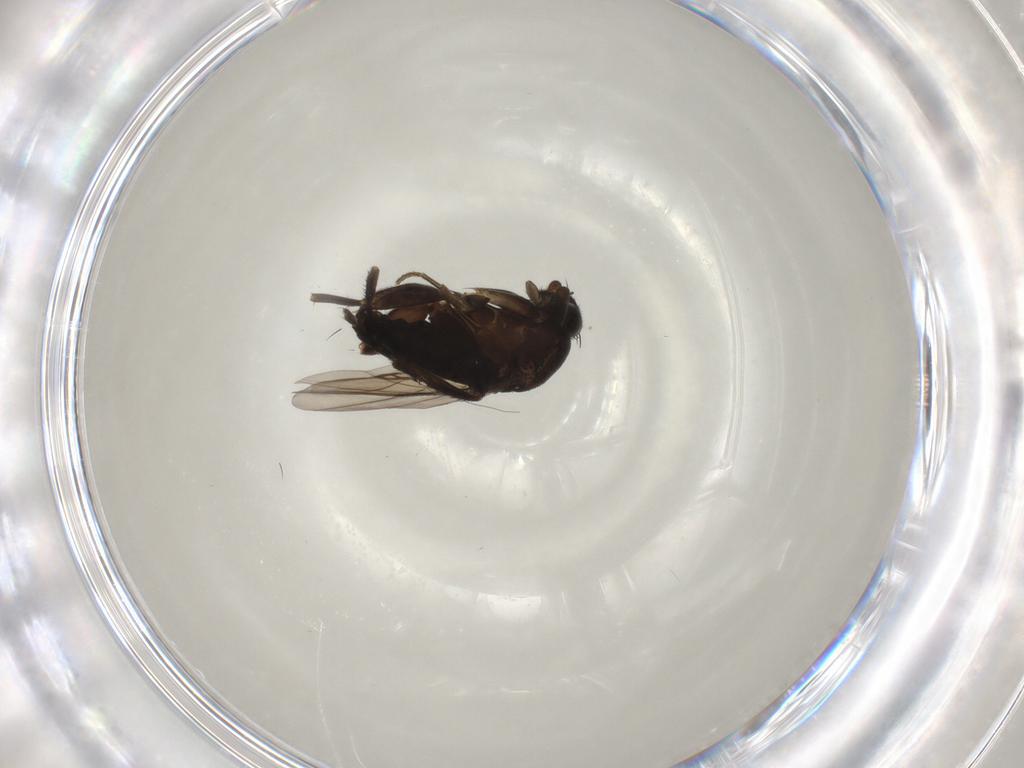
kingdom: Animalia
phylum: Arthropoda
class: Insecta
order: Diptera
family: Phoridae
